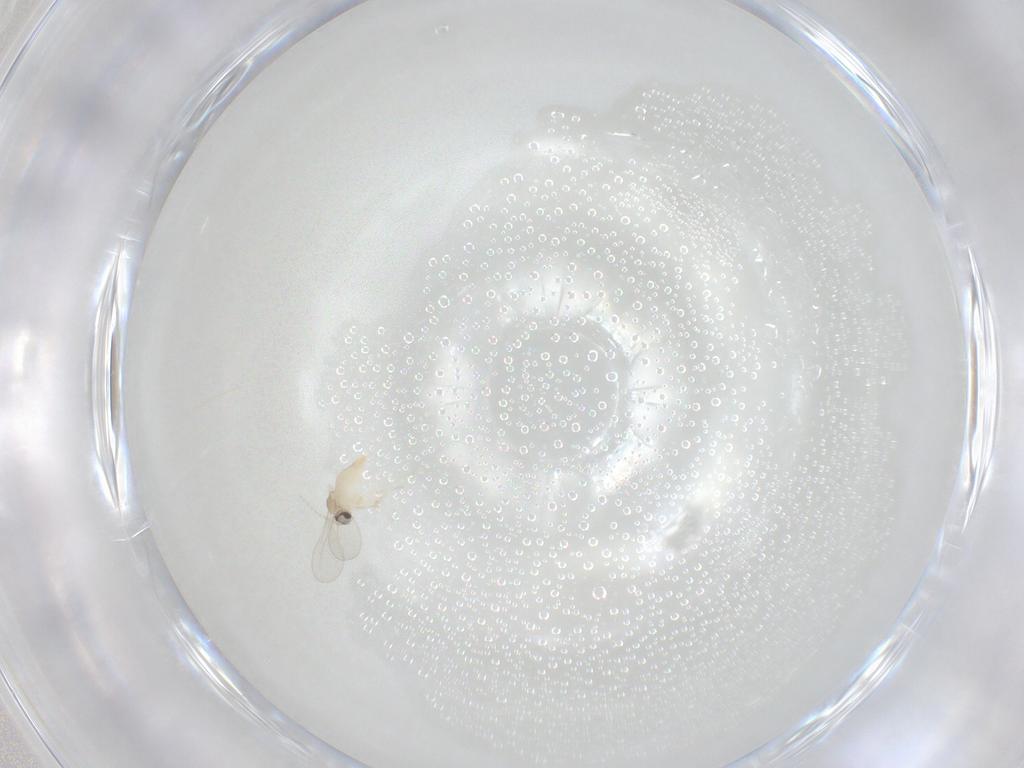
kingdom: Animalia
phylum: Arthropoda
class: Insecta
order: Diptera
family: Cecidomyiidae
